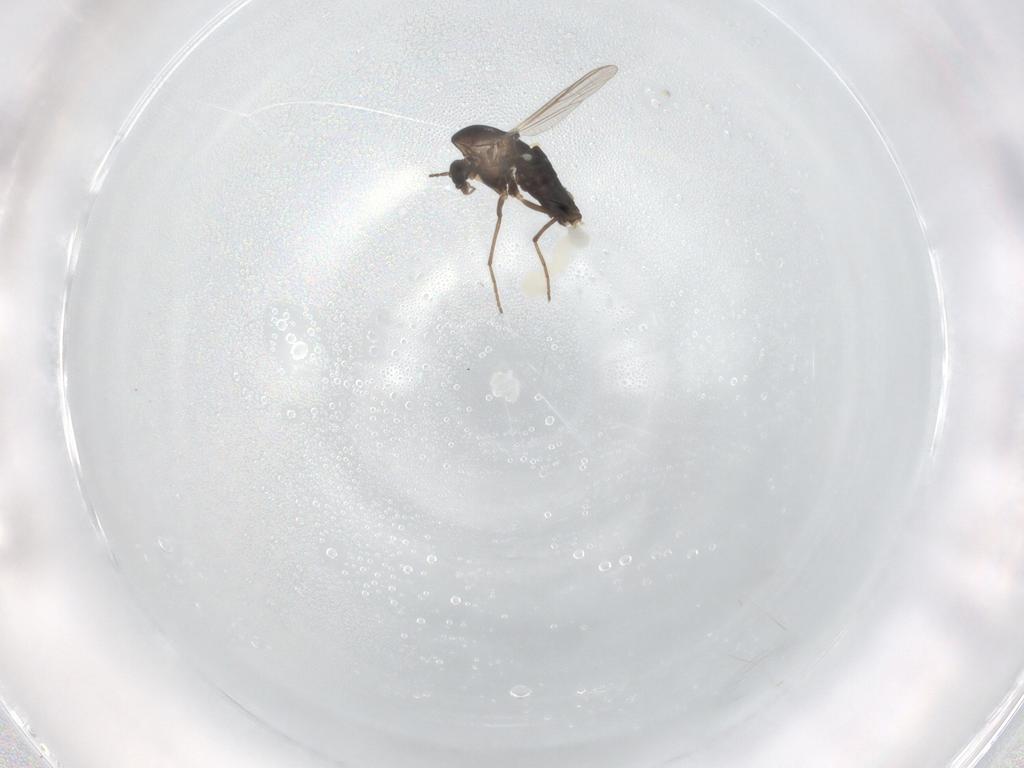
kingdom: Animalia
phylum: Arthropoda
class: Insecta
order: Diptera
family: Chironomidae
